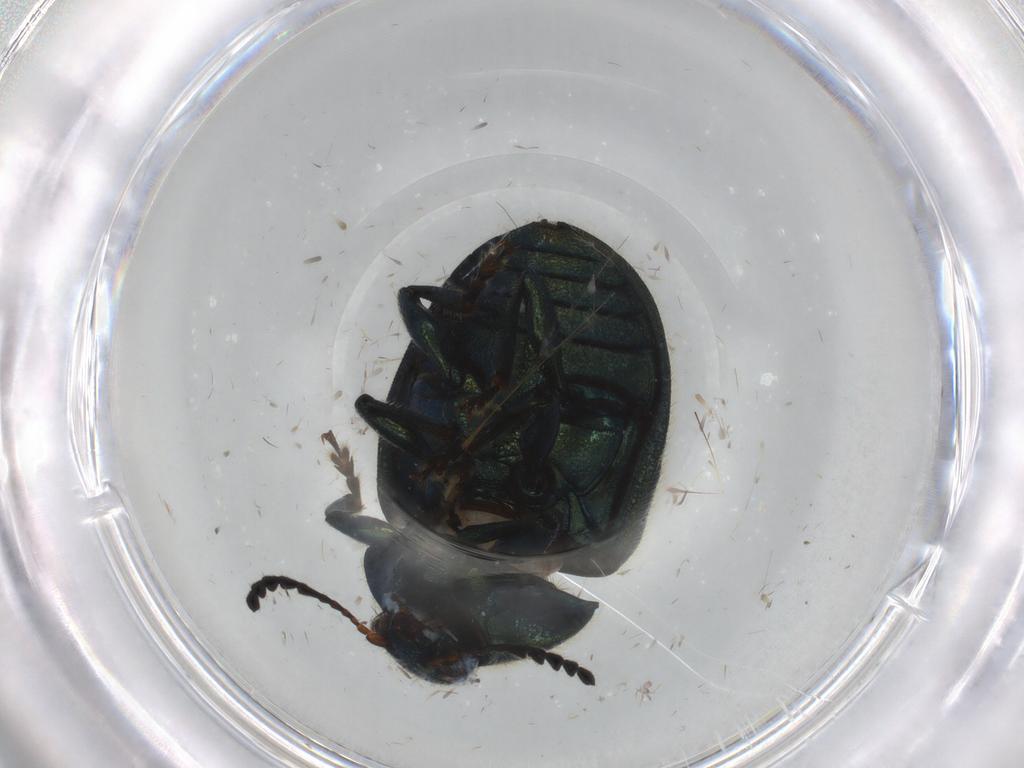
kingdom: Animalia
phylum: Arthropoda
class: Insecta
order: Coleoptera
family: Chrysomelidae
